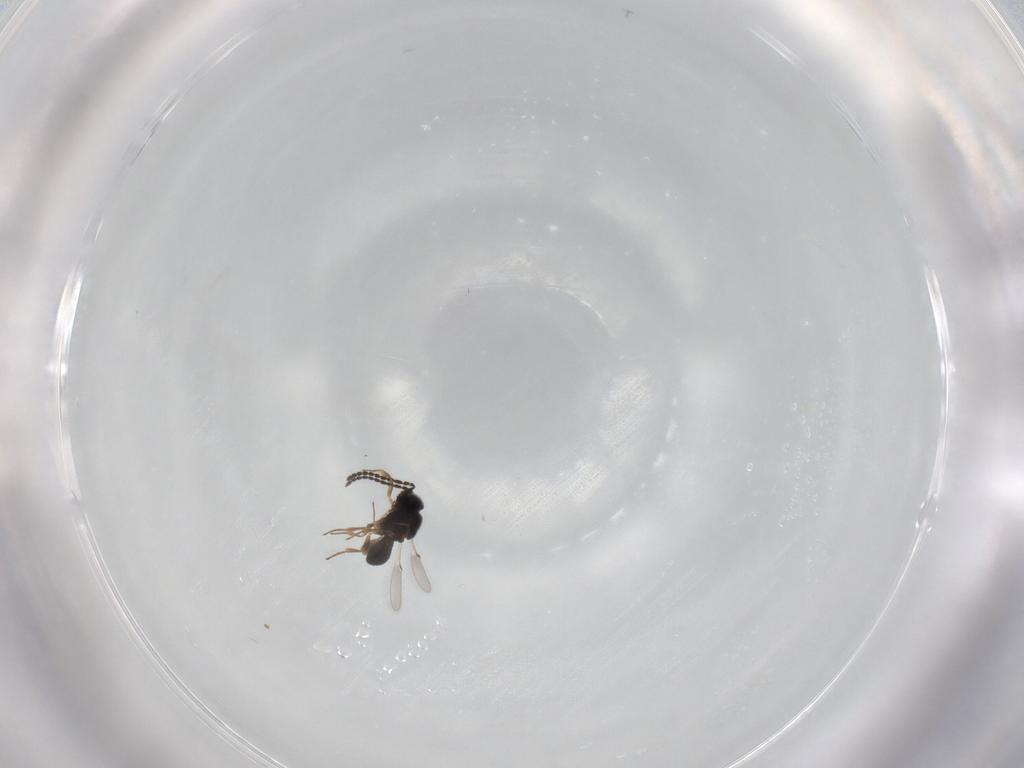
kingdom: Animalia
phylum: Arthropoda
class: Insecta
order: Hymenoptera
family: Scelionidae
